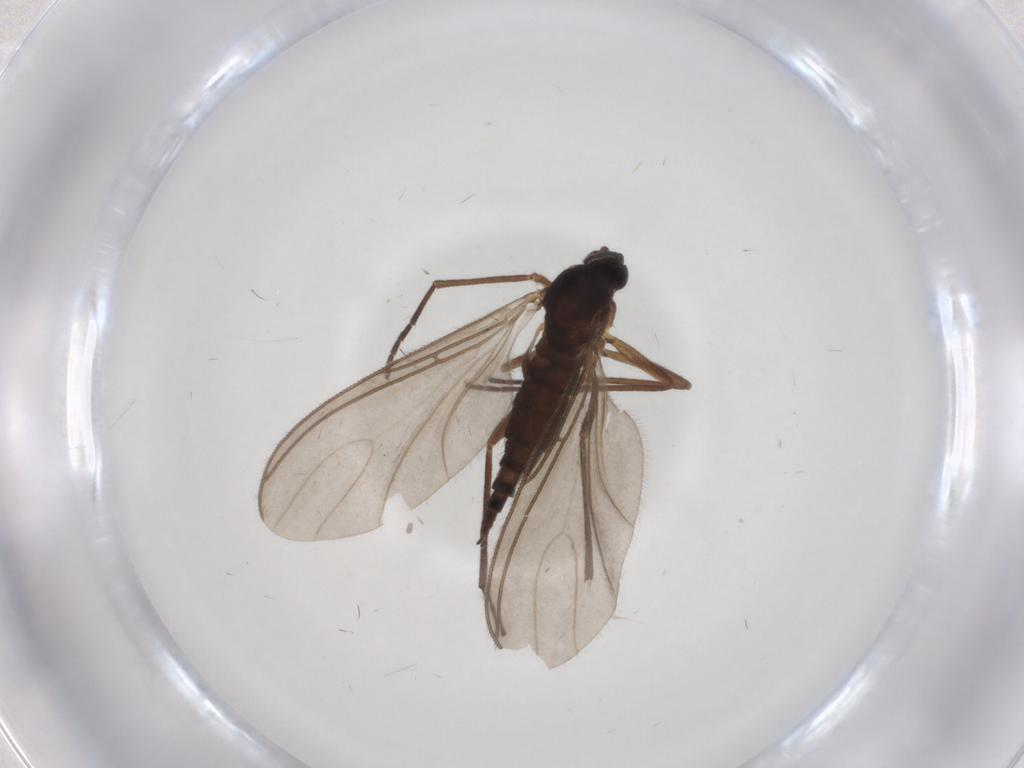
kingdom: Animalia
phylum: Arthropoda
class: Insecta
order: Diptera
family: Sciaridae
